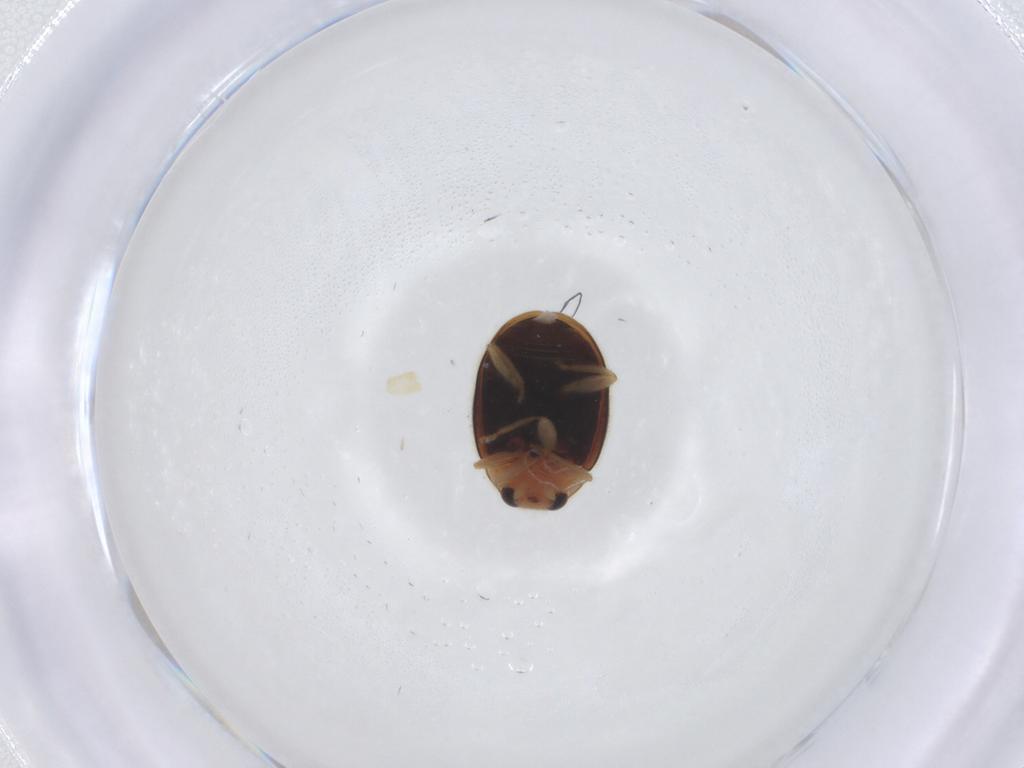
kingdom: Animalia
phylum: Arthropoda
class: Insecta
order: Coleoptera
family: Coccinellidae
